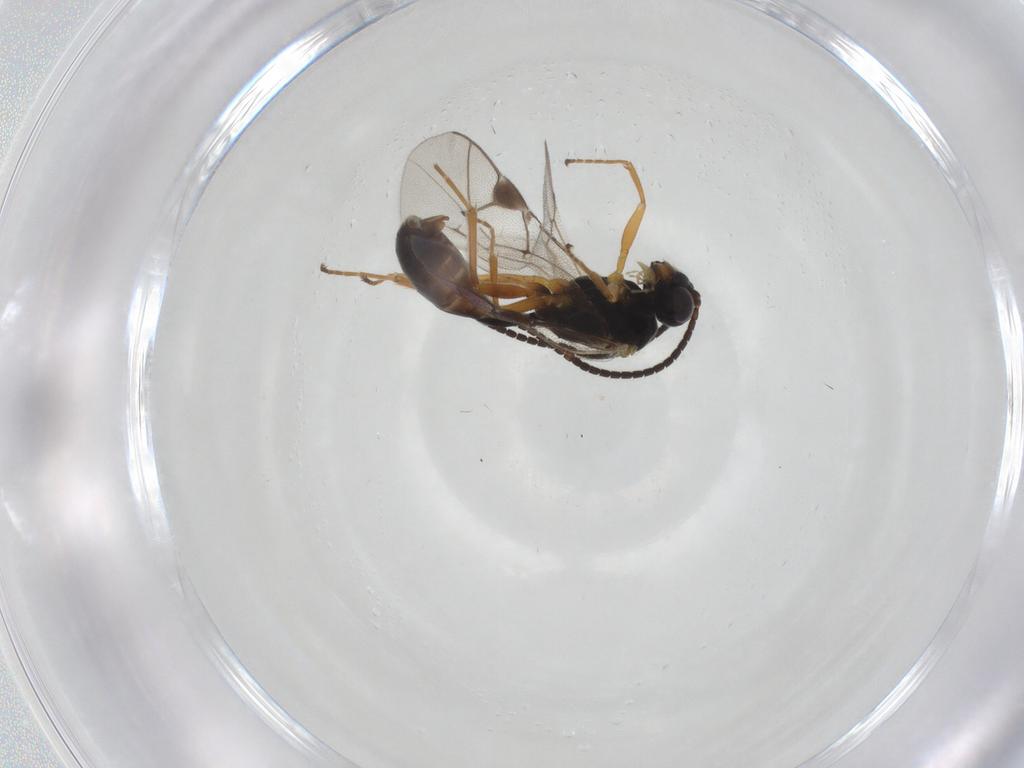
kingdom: Animalia
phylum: Arthropoda
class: Insecta
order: Hymenoptera
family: Ichneumonidae
